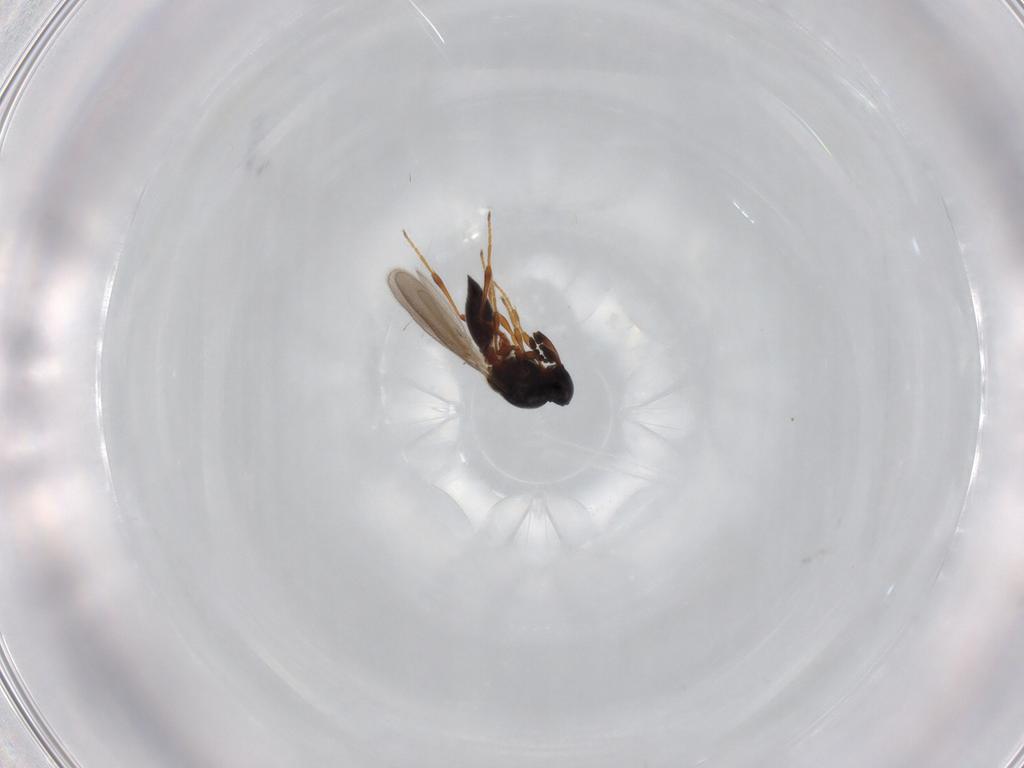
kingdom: Animalia
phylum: Arthropoda
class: Insecta
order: Hymenoptera
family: Platygastridae
